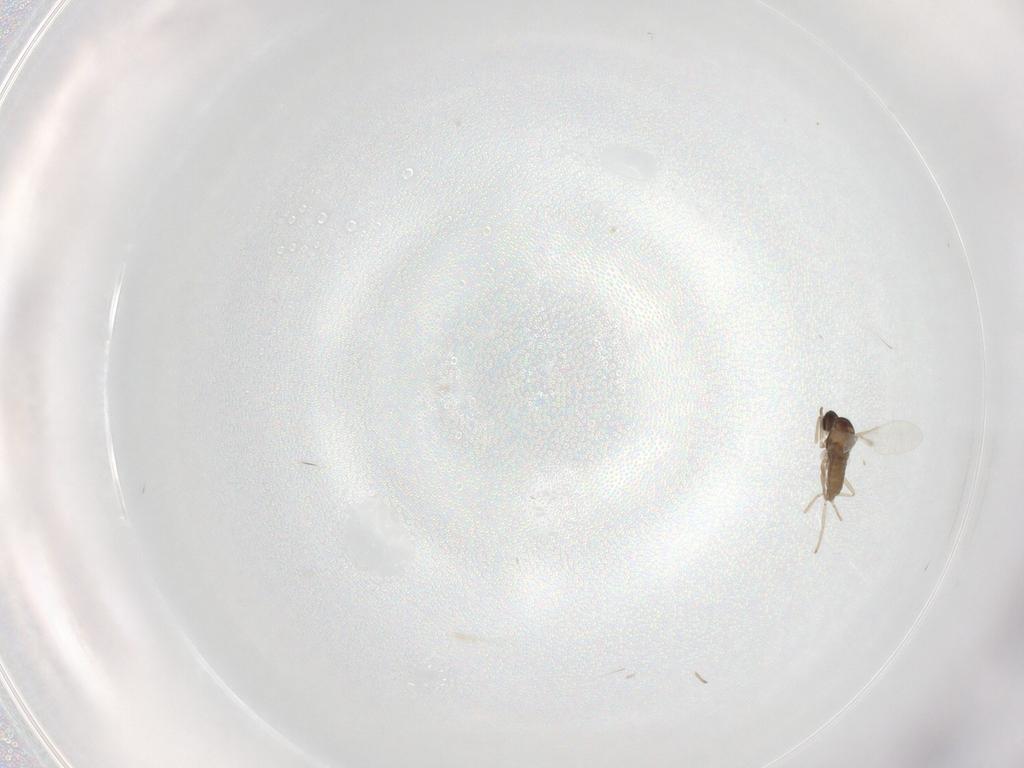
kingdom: Animalia
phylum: Arthropoda
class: Insecta
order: Diptera
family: Cecidomyiidae
